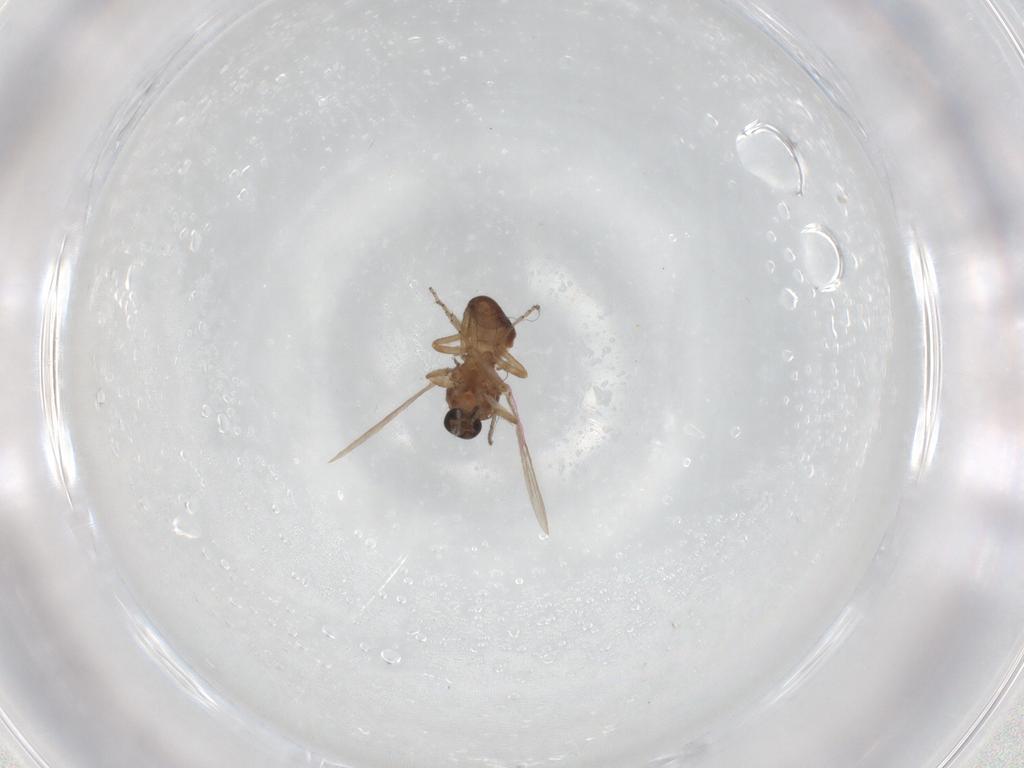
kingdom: Animalia
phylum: Arthropoda
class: Insecta
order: Diptera
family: Ceratopogonidae
